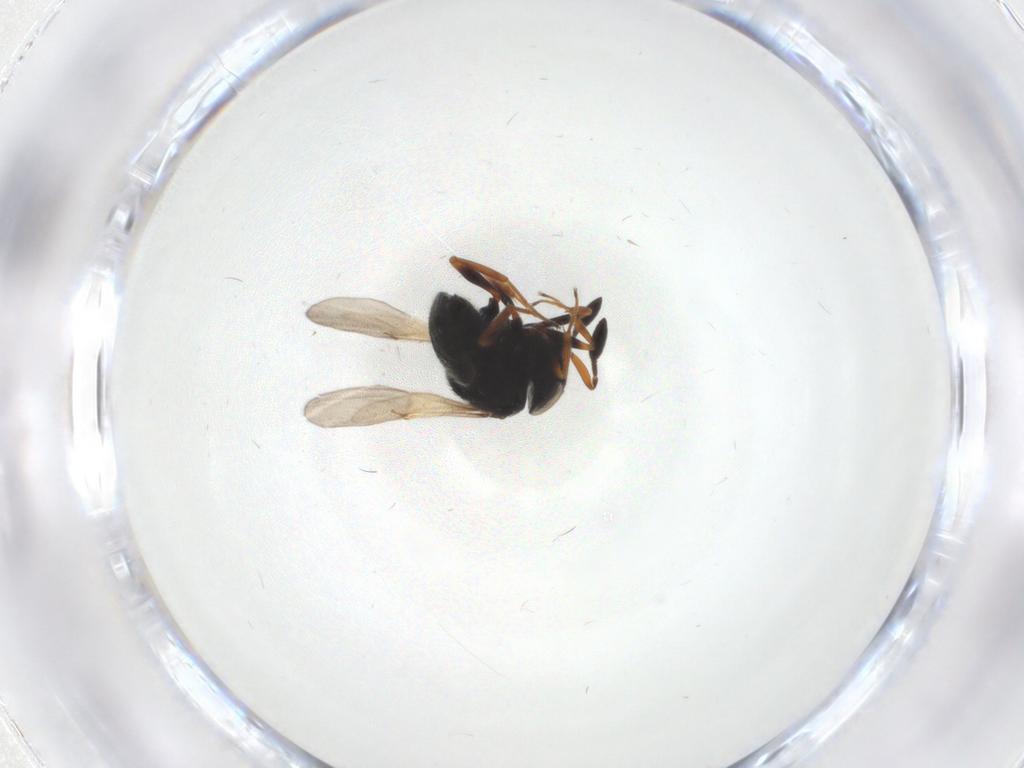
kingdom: Animalia
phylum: Arthropoda
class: Insecta
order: Hymenoptera
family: Scelionidae
